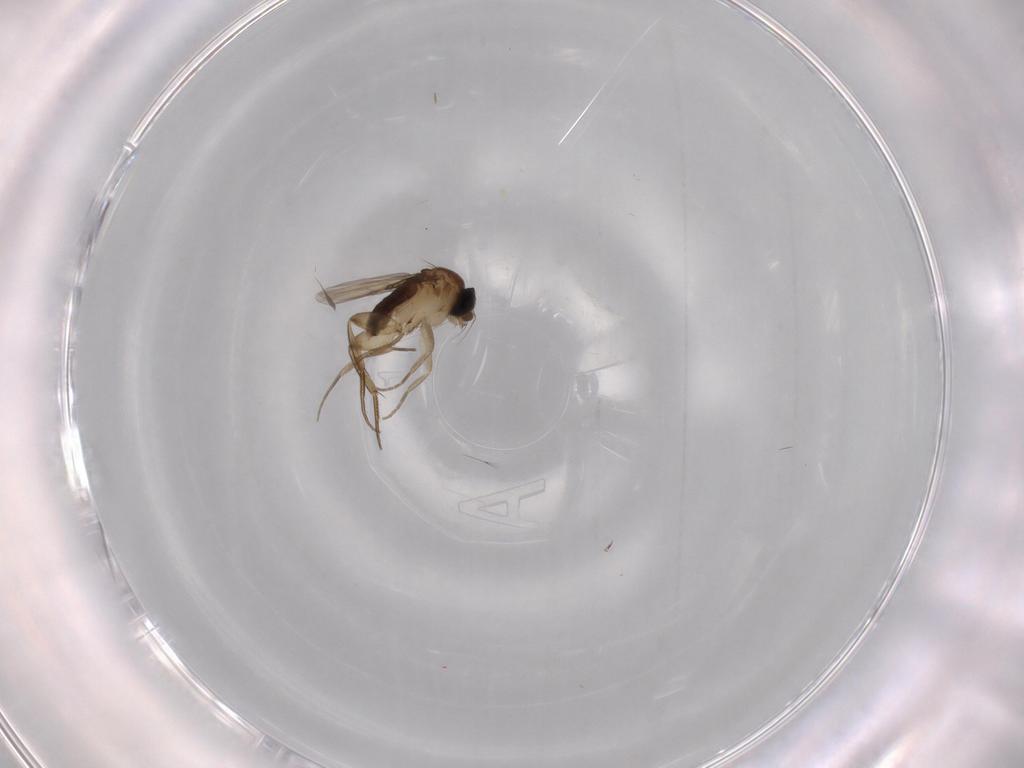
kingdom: Animalia
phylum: Arthropoda
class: Insecta
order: Diptera
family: Phoridae
